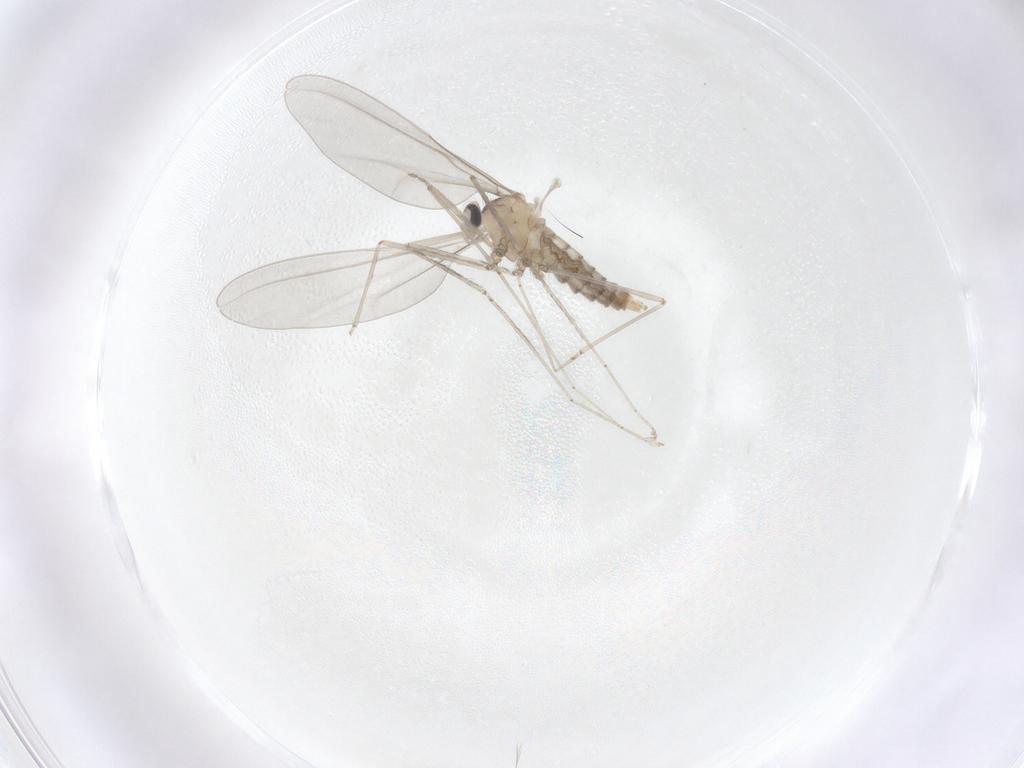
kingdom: Animalia
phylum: Arthropoda
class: Insecta
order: Diptera
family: Cecidomyiidae
